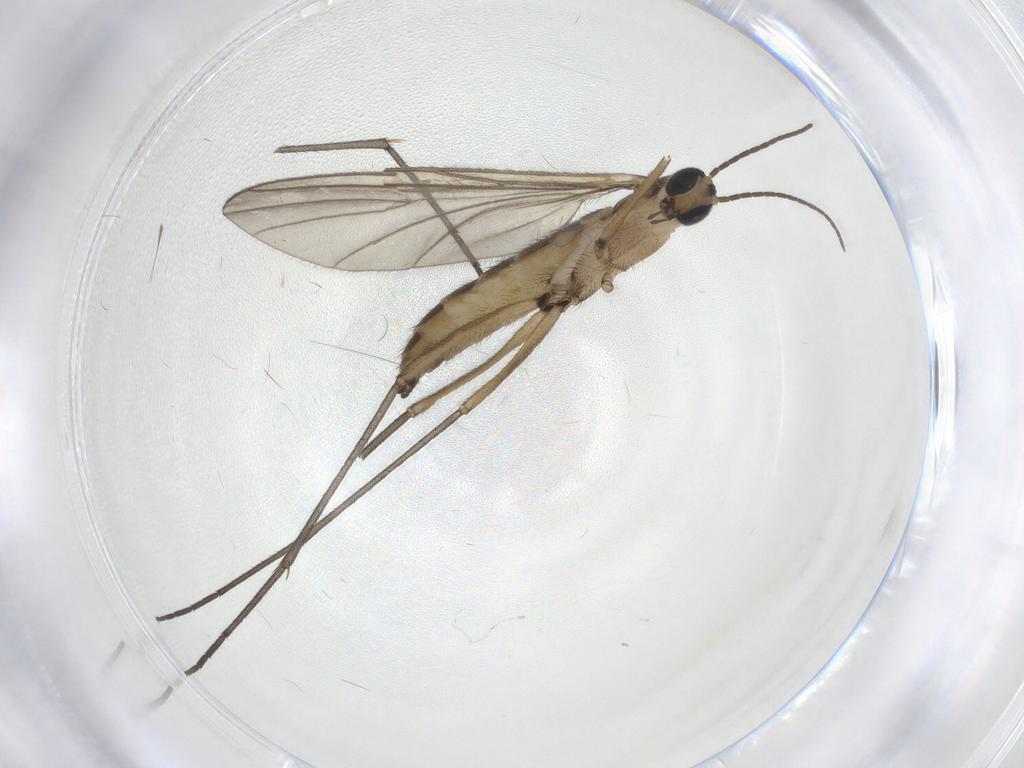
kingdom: Animalia
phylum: Arthropoda
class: Insecta
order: Diptera
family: Sciaridae
